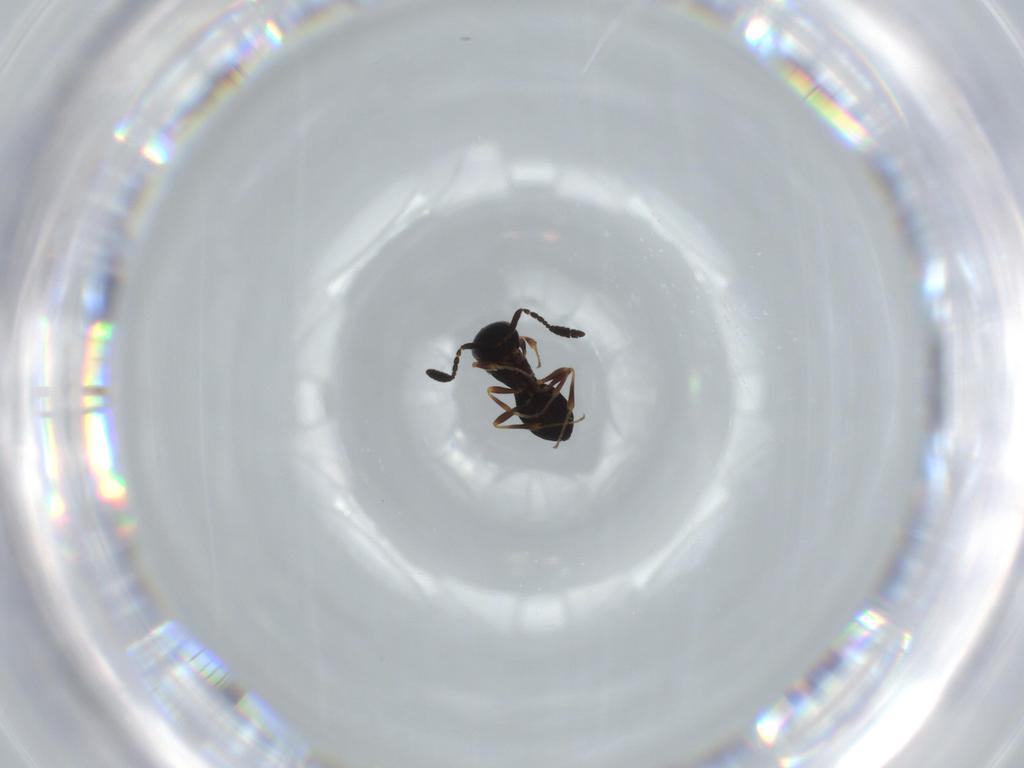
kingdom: Animalia
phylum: Arthropoda
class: Insecta
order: Hymenoptera
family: Scelionidae
